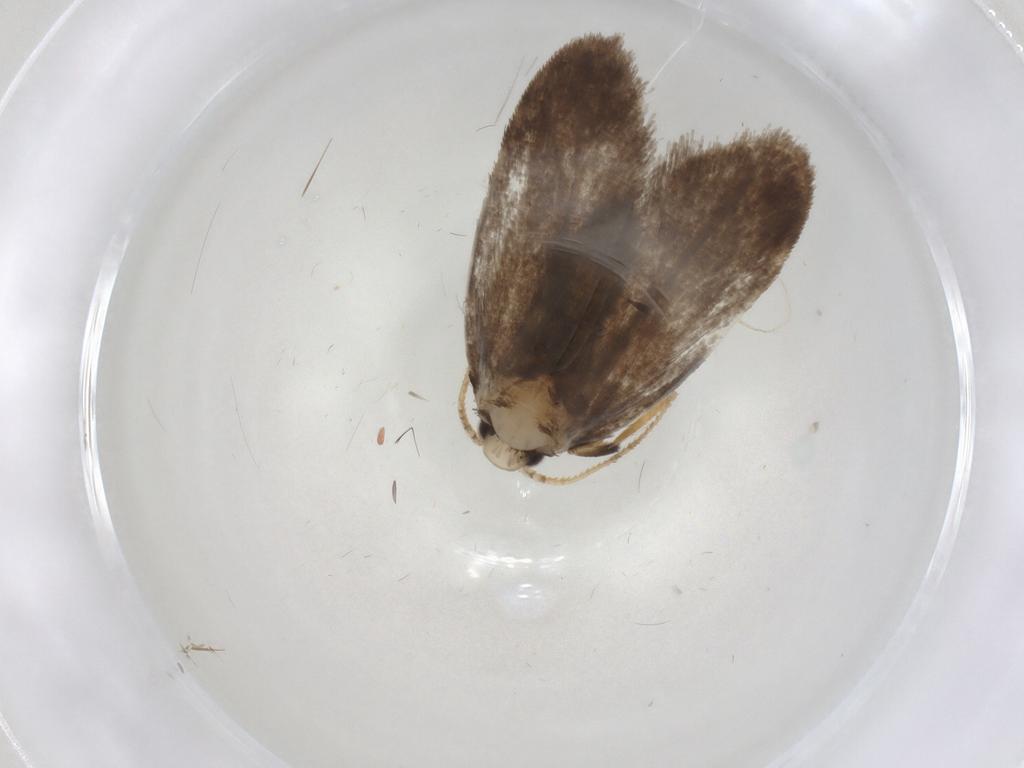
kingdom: Animalia
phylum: Arthropoda
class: Insecta
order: Lepidoptera
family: Psychidae
